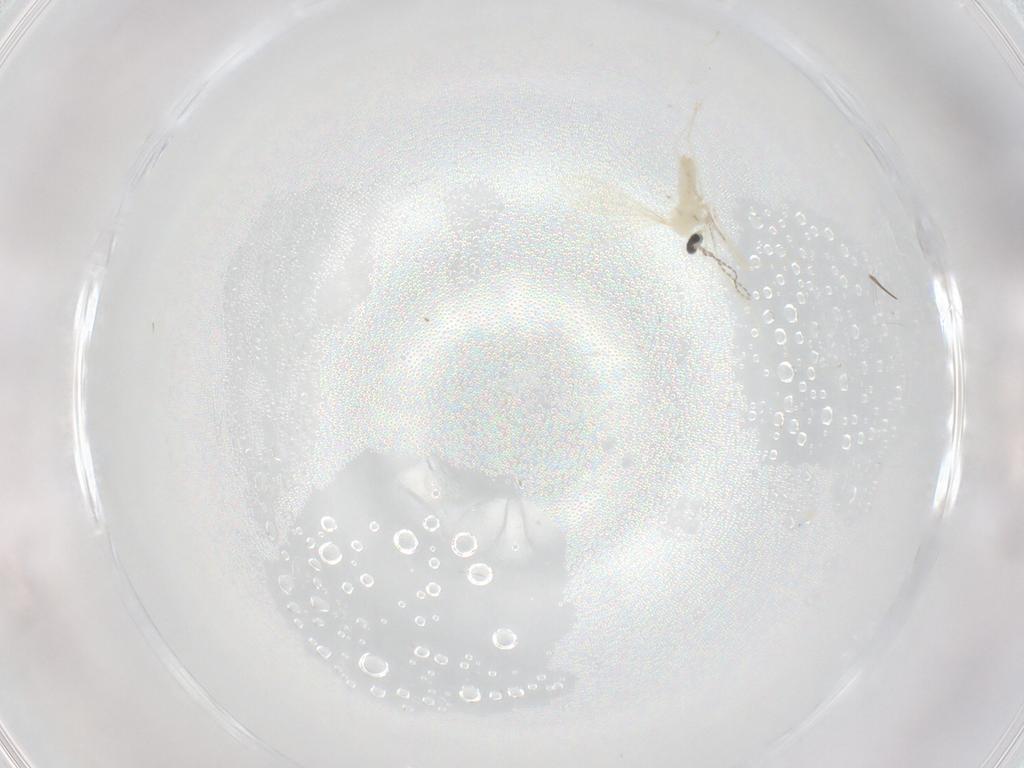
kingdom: Animalia
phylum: Arthropoda
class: Insecta
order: Diptera
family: Cecidomyiidae
